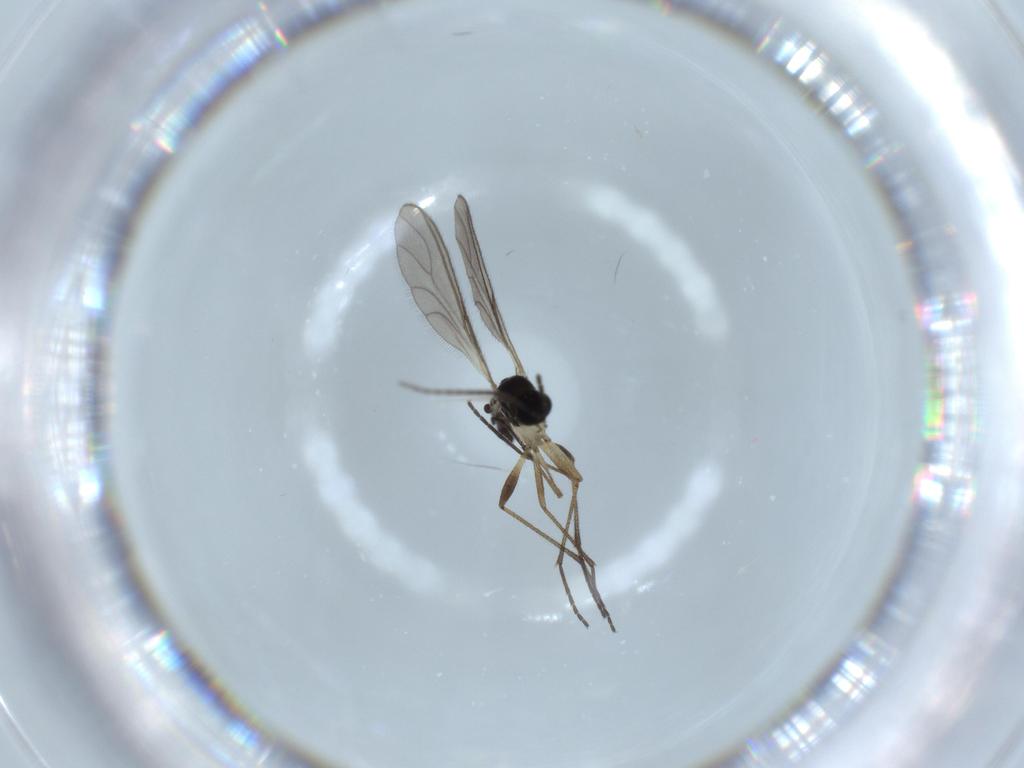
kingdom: Animalia
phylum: Arthropoda
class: Insecta
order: Diptera
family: Sciaridae
